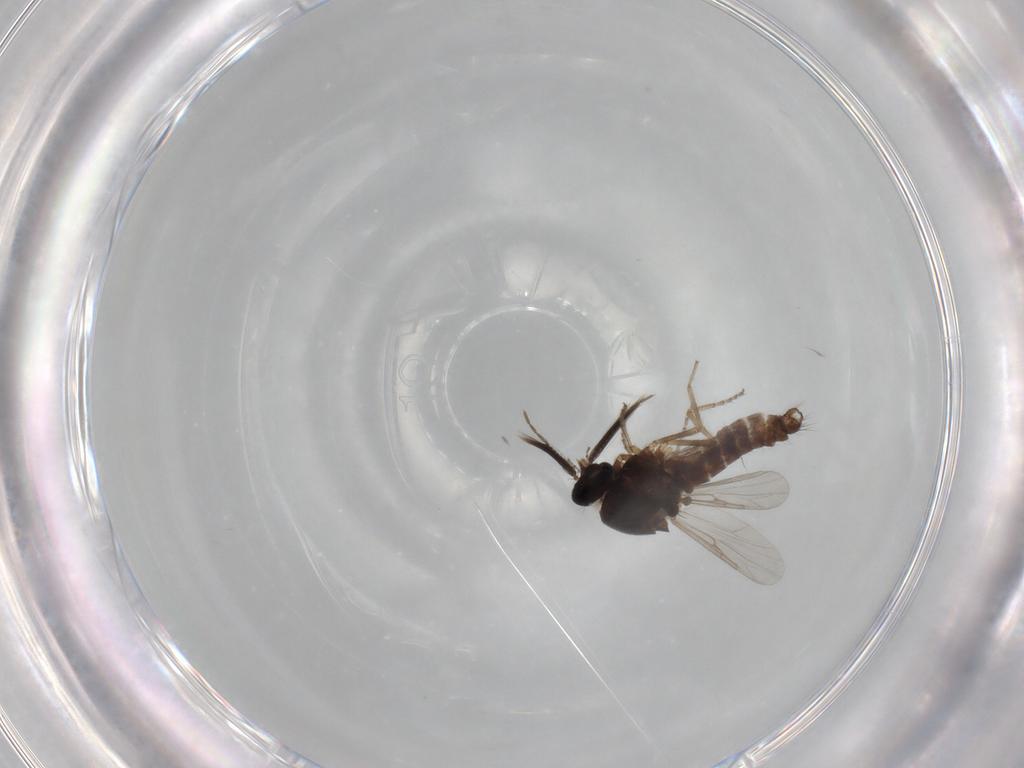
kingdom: Animalia
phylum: Arthropoda
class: Insecta
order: Diptera
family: Ceratopogonidae
